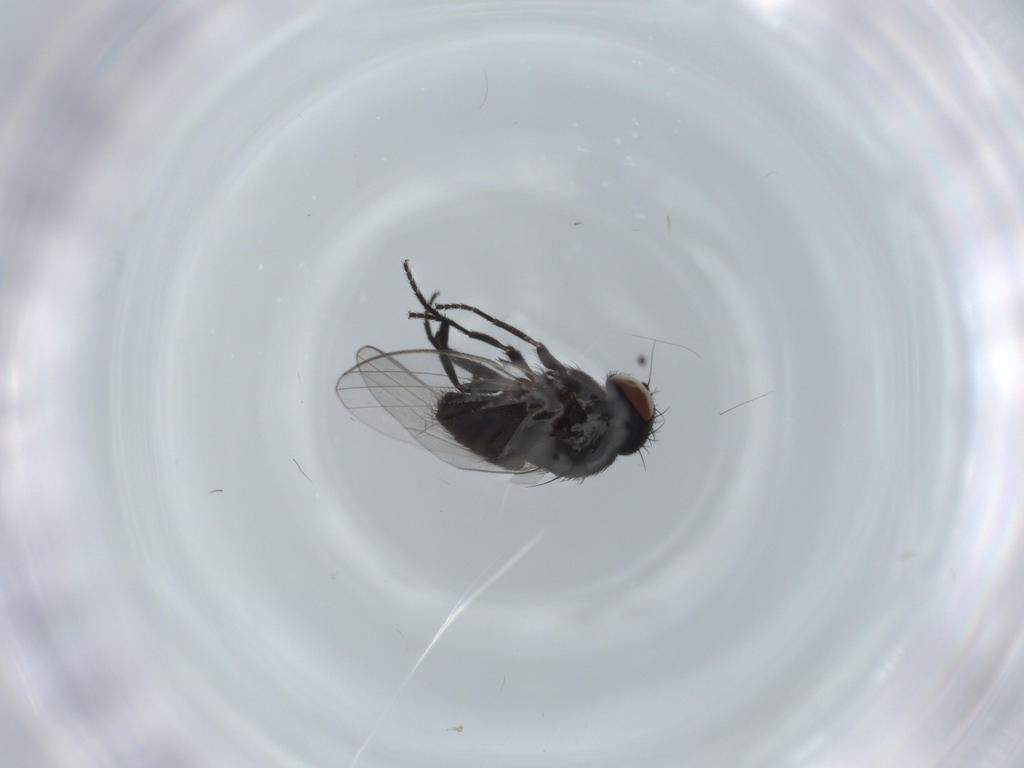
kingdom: Animalia
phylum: Arthropoda
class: Insecta
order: Diptera
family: Milichiidae
